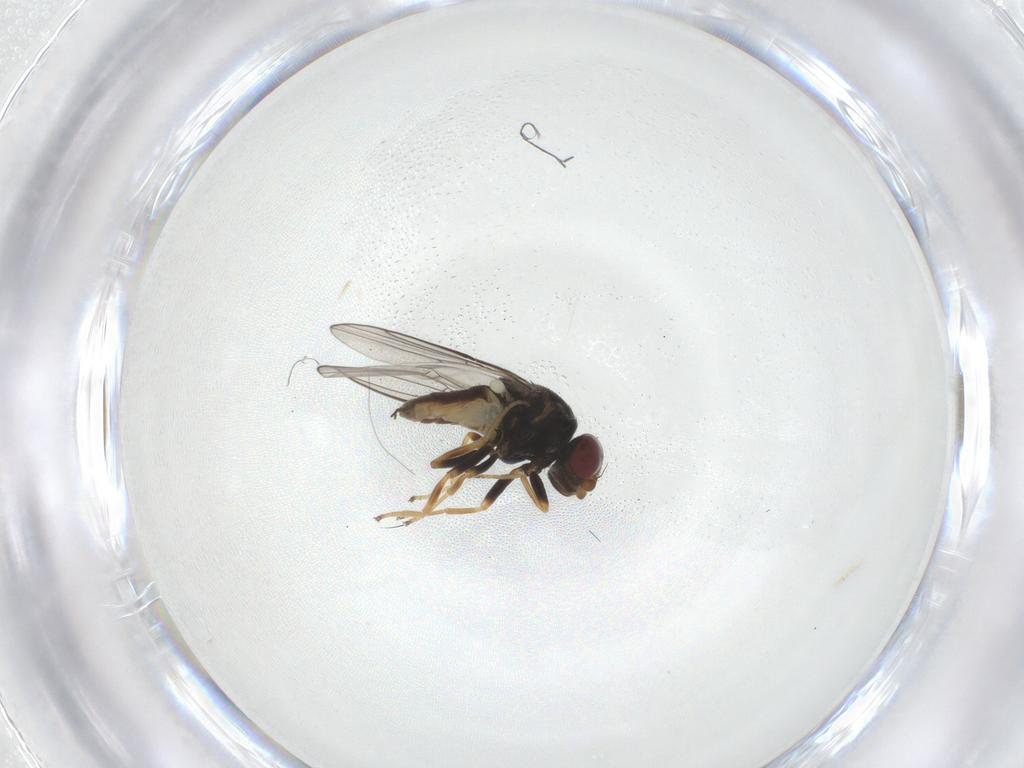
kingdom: Animalia
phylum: Arthropoda
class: Insecta
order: Diptera
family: Chloropidae
